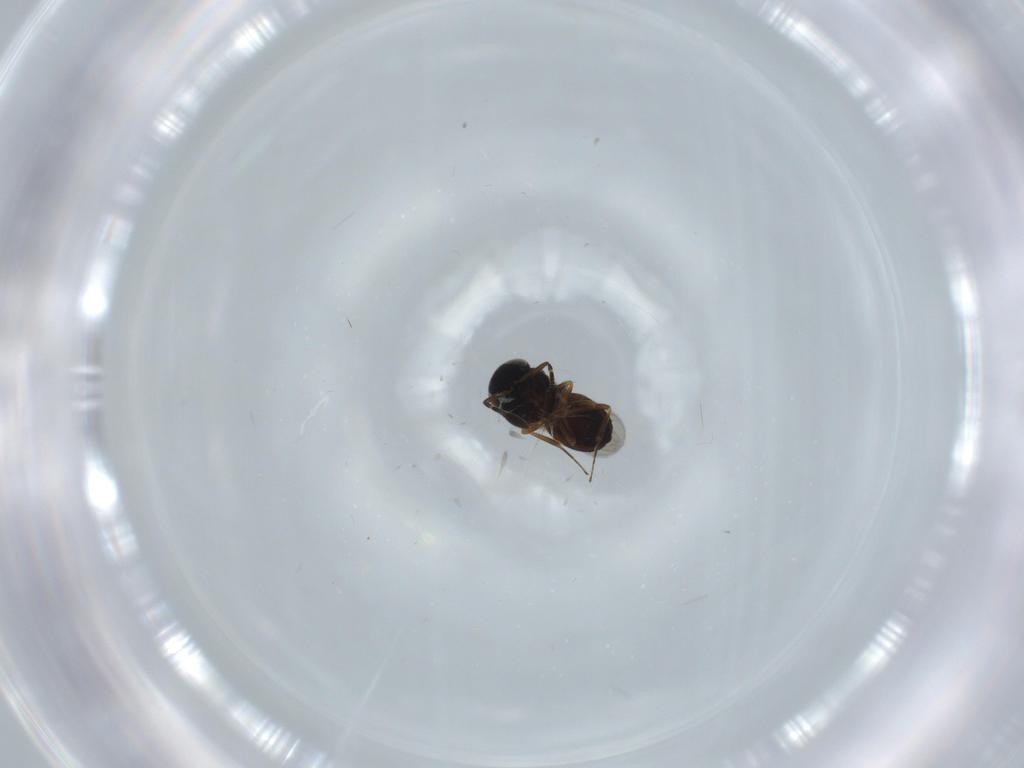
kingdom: Animalia
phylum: Arthropoda
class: Insecta
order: Coleoptera
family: Curculionidae
